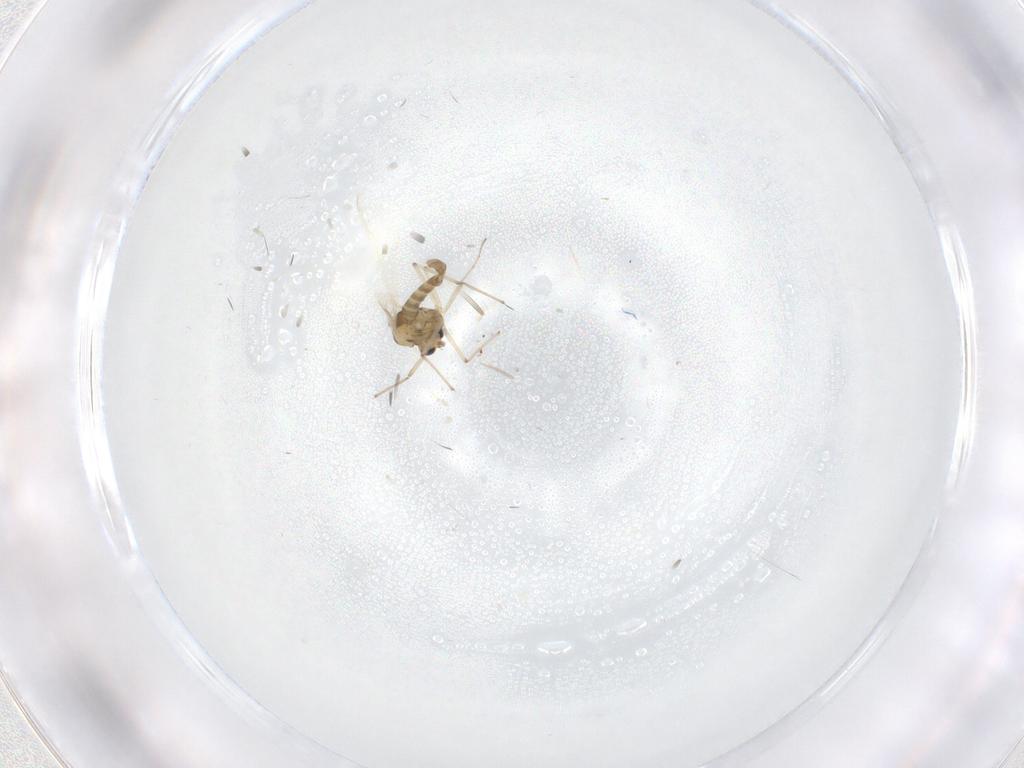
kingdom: Animalia
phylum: Arthropoda
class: Insecta
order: Diptera
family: Chironomidae
